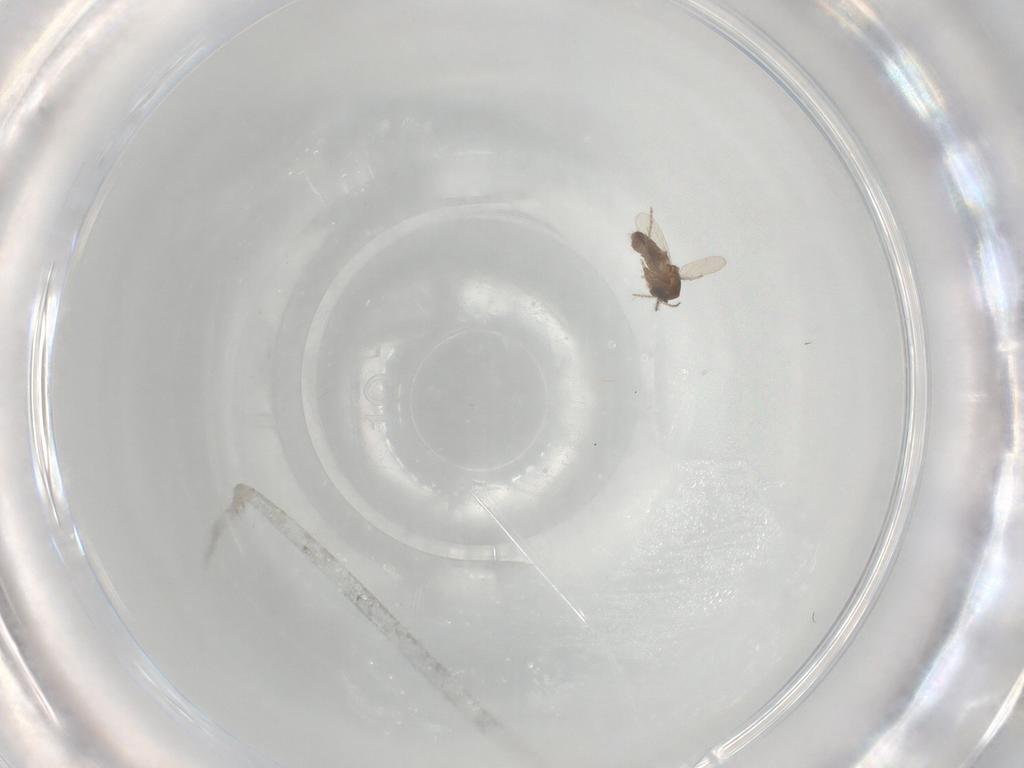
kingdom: Animalia
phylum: Arthropoda
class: Insecta
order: Diptera
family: Ceratopogonidae
